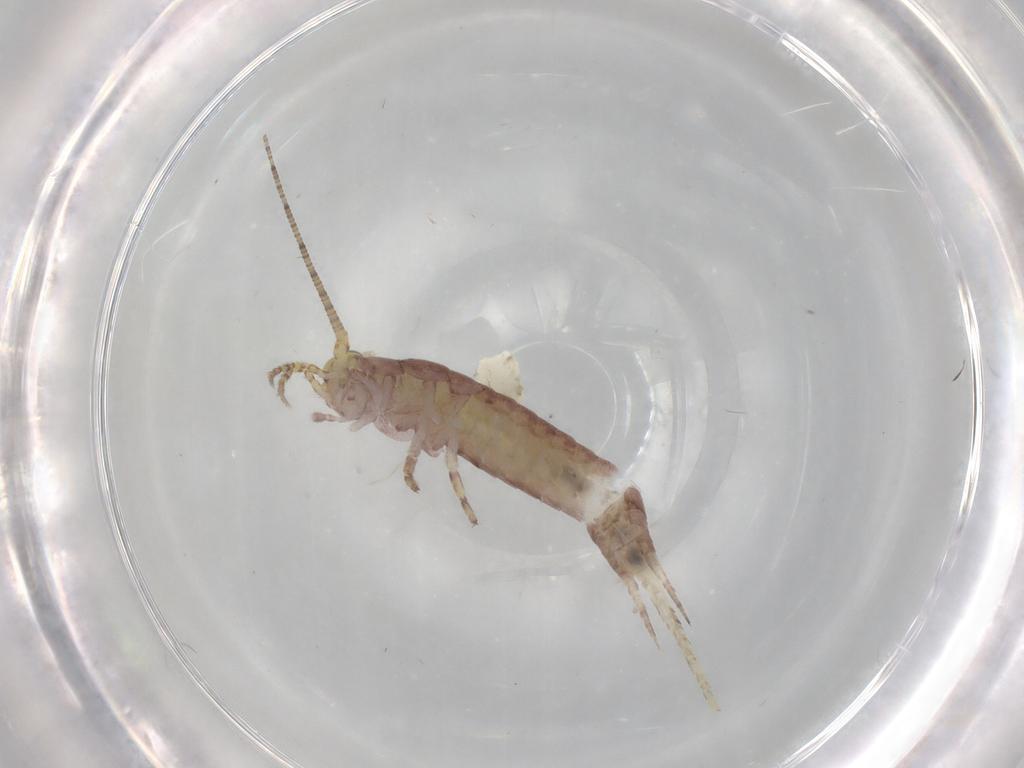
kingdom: Animalia
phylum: Arthropoda
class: Insecta
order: Archaeognatha
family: Machilidae
